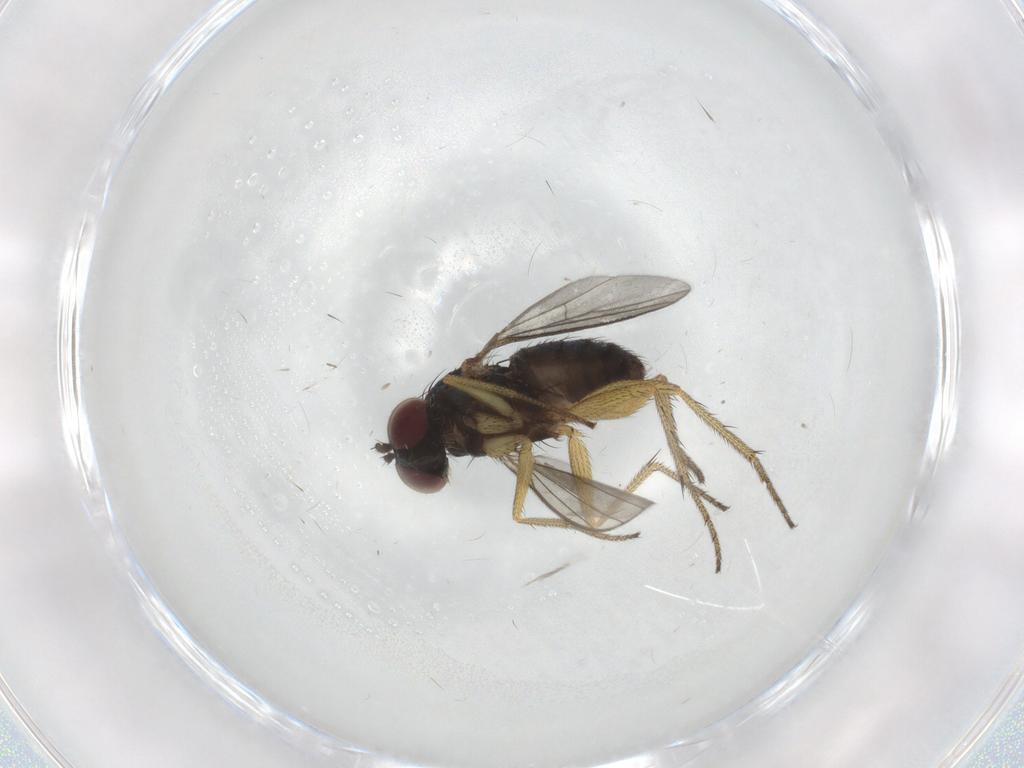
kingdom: Animalia
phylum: Arthropoda
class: Insecta
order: Diptera
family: Dolichopodidae
